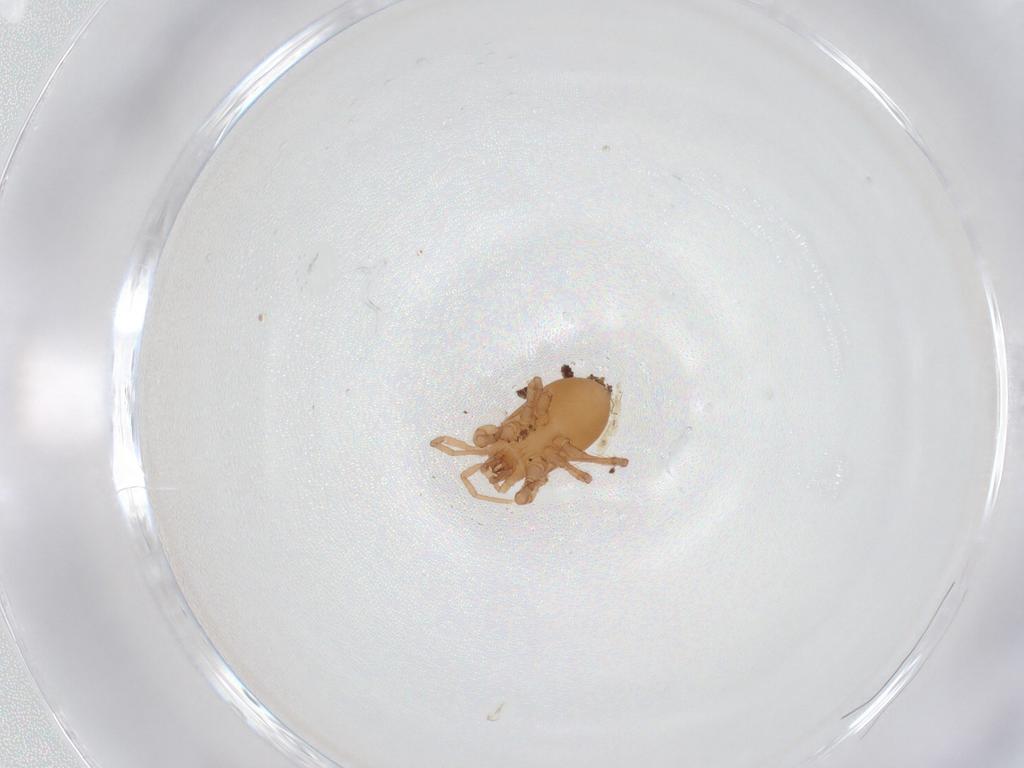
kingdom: Animalia
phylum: Arthropoda
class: Arachnida
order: Mesostigmata
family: Parasitidae
